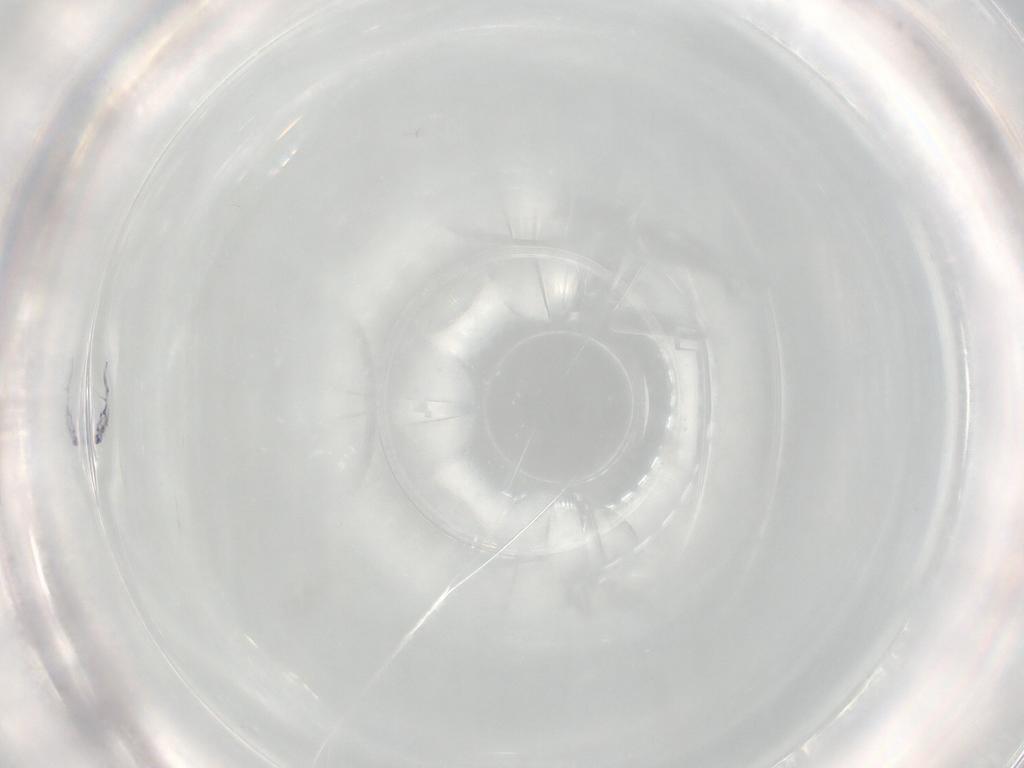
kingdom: Animalia
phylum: Arthropoda
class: Collembola
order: Entomobryomorpha
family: Entomobryidae
